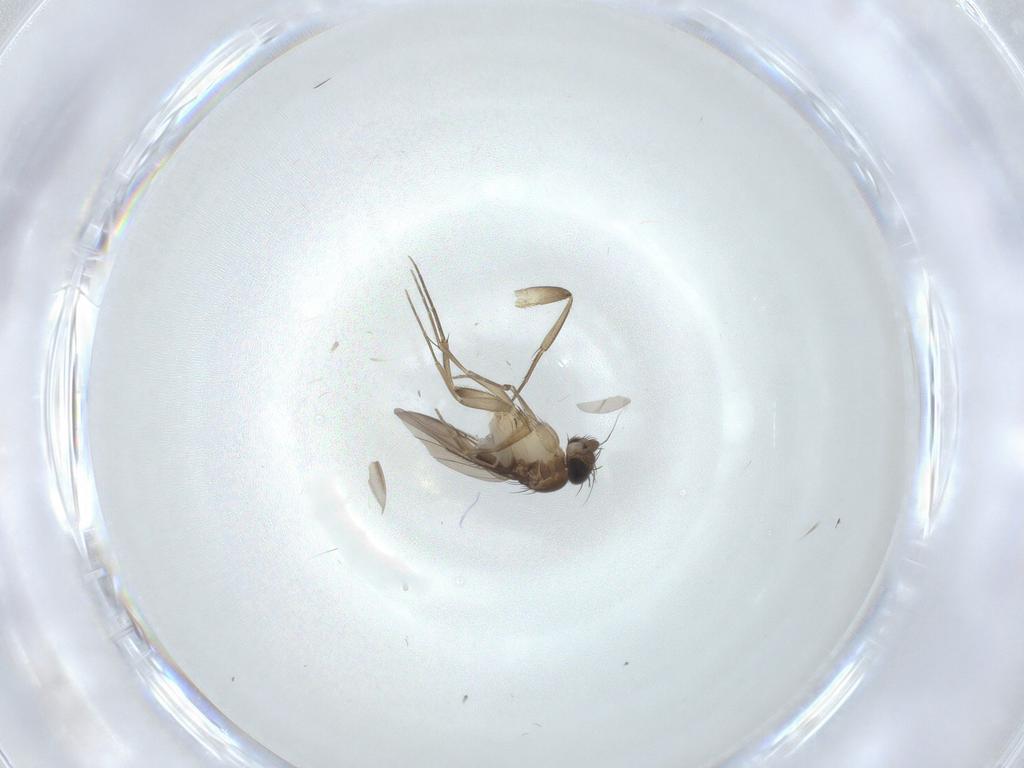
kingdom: Animalia
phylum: Arthropoda
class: Insecta
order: Diptera
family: Phoridae
